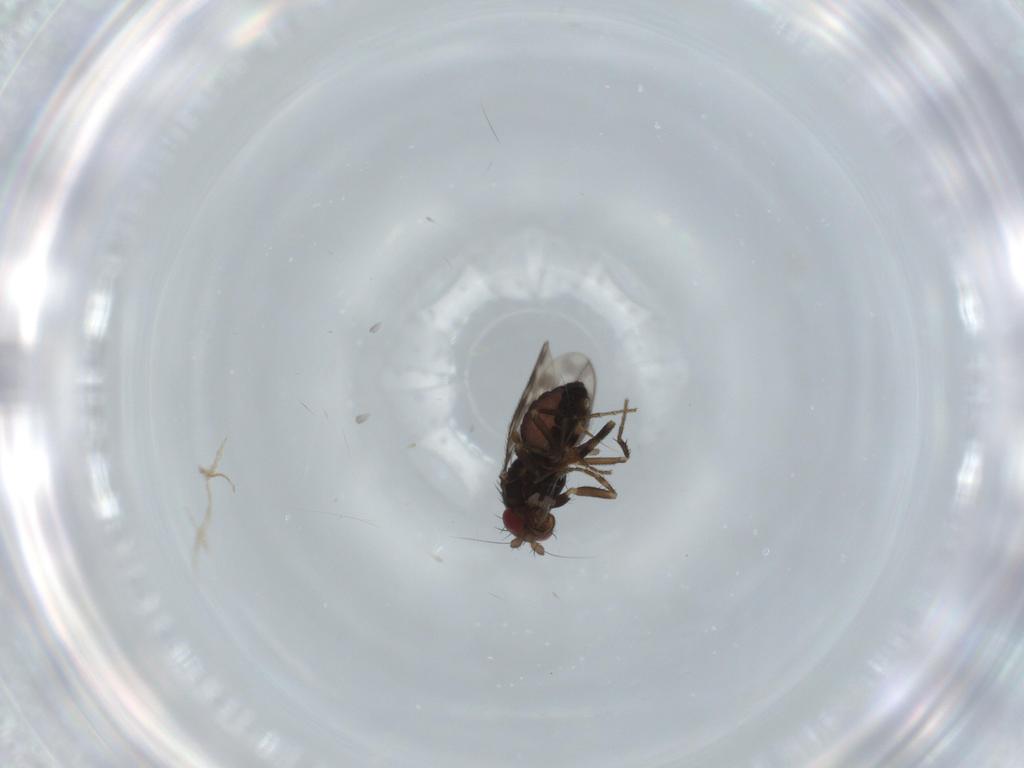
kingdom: Animalia
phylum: Arthropoda
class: Insecta
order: Diptera
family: Sphaeroceridae
